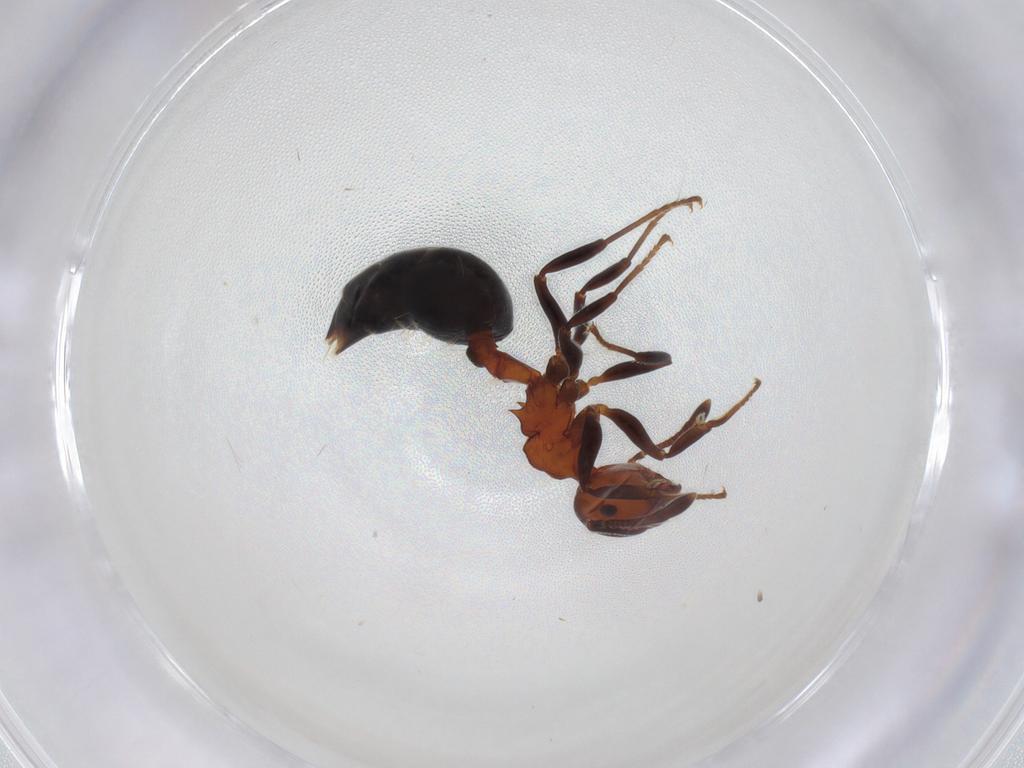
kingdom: Animalia
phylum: Arthropoda
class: Insecta
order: Hymenoptera
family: Formicidae
